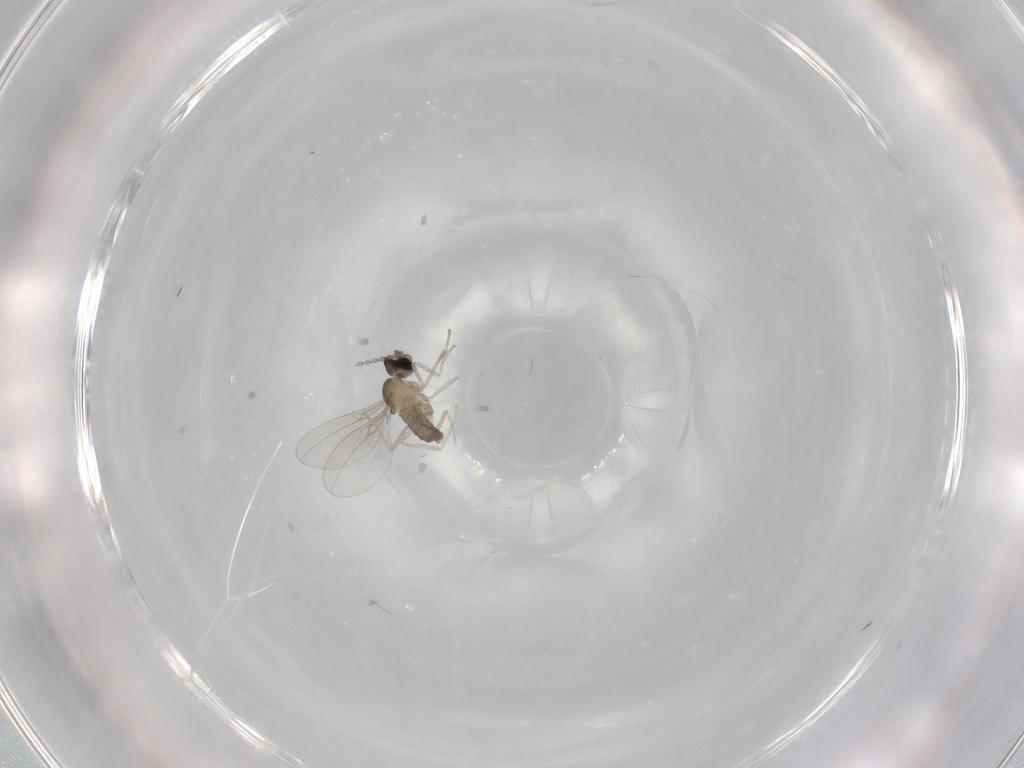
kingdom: Animalia
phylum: Arthropoda
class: Insecta
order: Diptera
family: Cecidomyiidae
